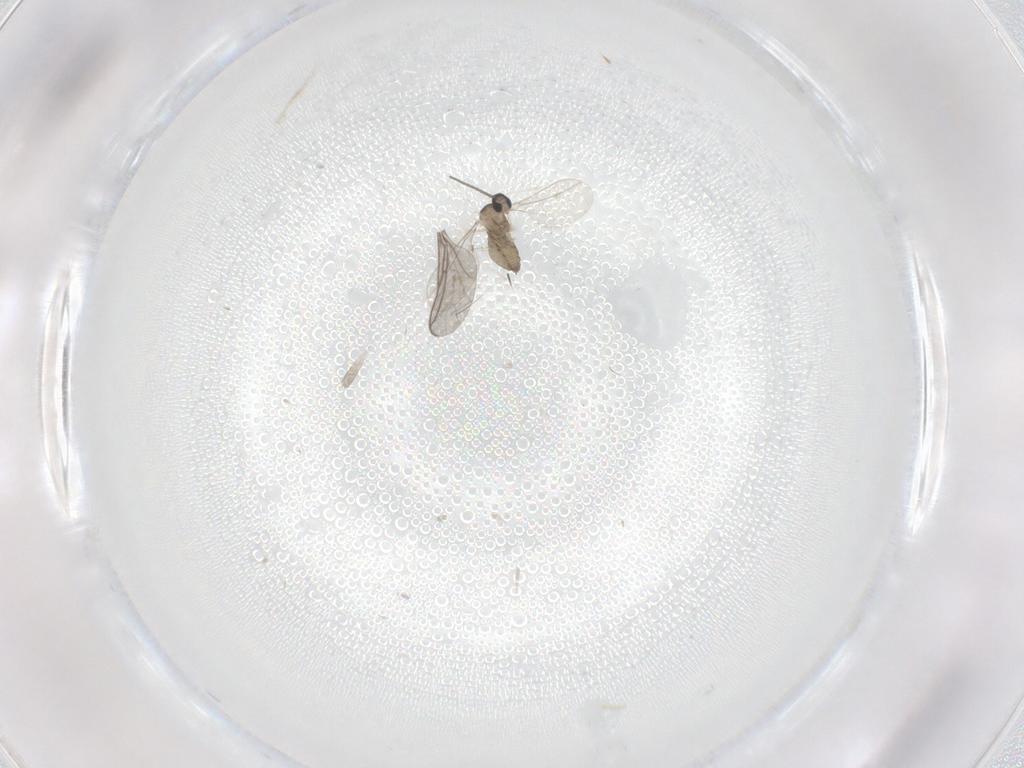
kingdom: Animalia
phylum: Arthropoda
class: Insecta
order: Diptera
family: Cecidomyiidae
